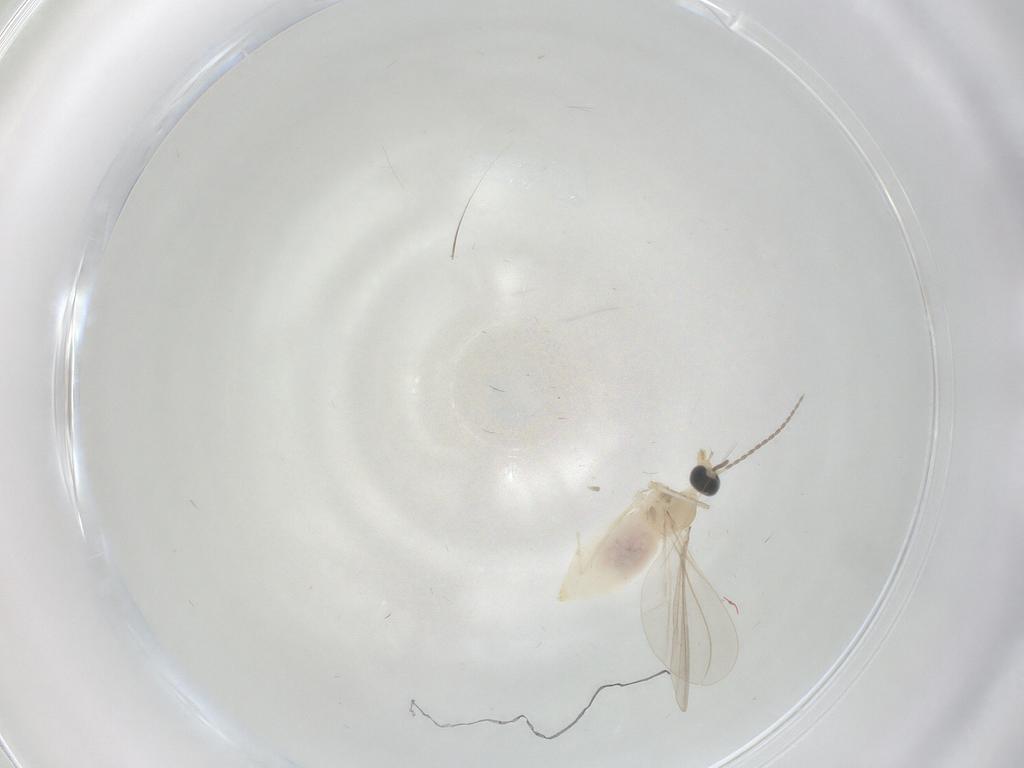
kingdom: Animalia
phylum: Arthropoda
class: Insecta
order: Diptera
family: Cecidomyiidae
